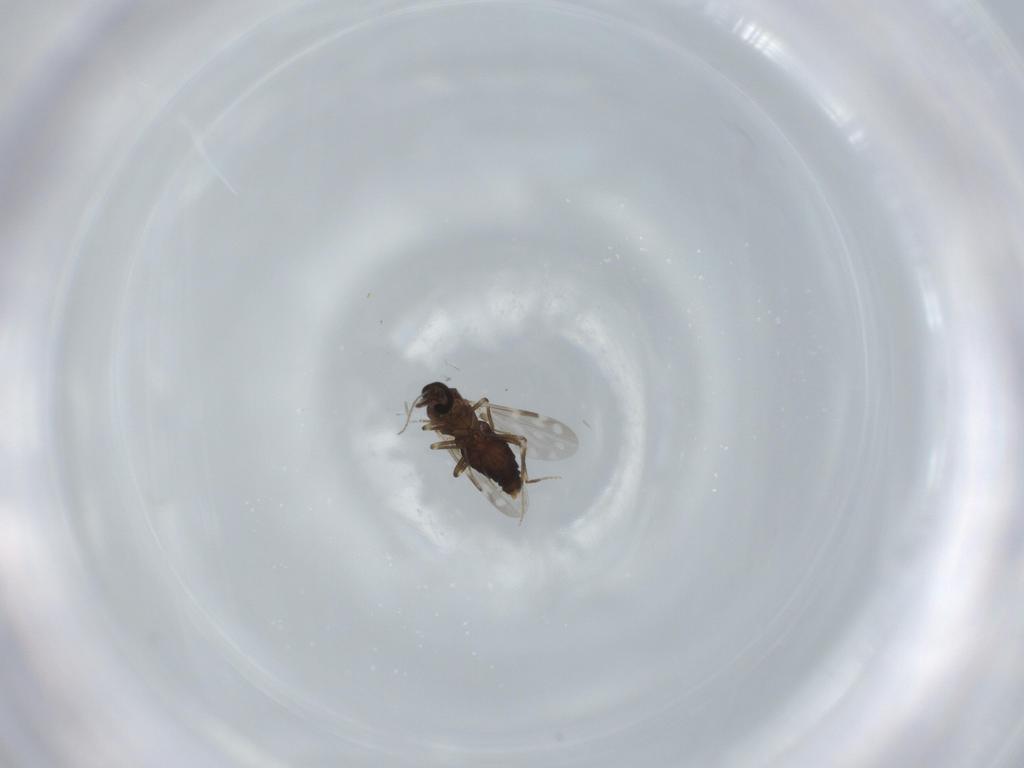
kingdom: Animalia
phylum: Arthropoda
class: Insecta
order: Diptera
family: Ceratopogonidae
